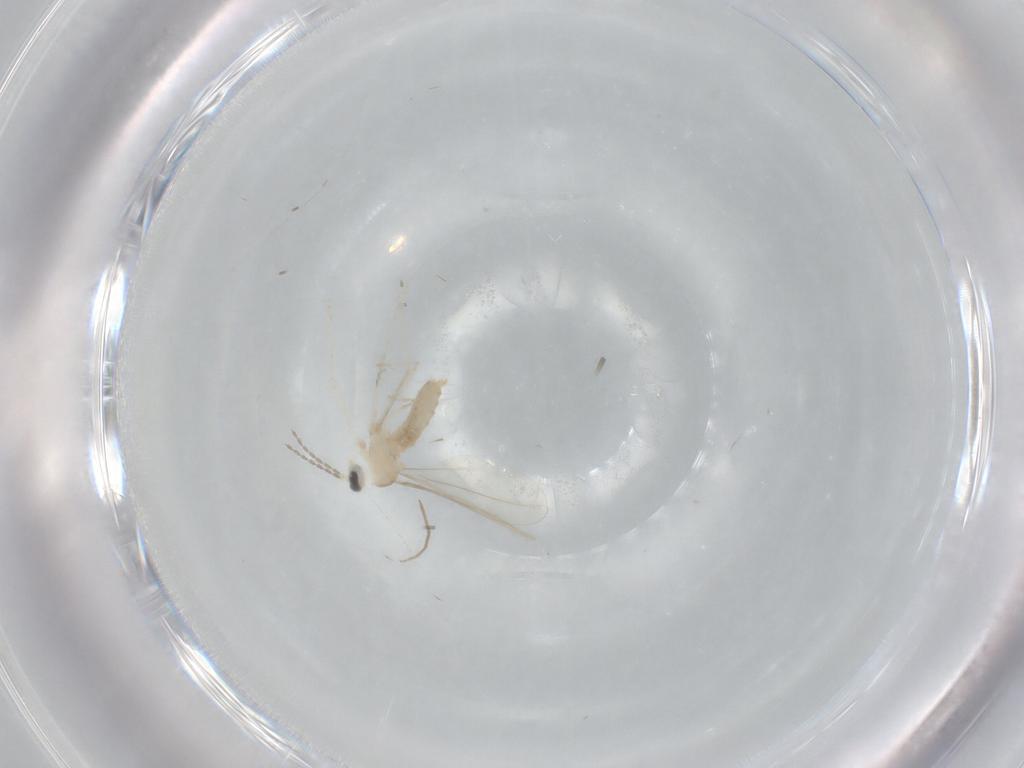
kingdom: Animalia
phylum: Arthropoda
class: Insecta
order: Diptera
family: Cecidomyiidae
